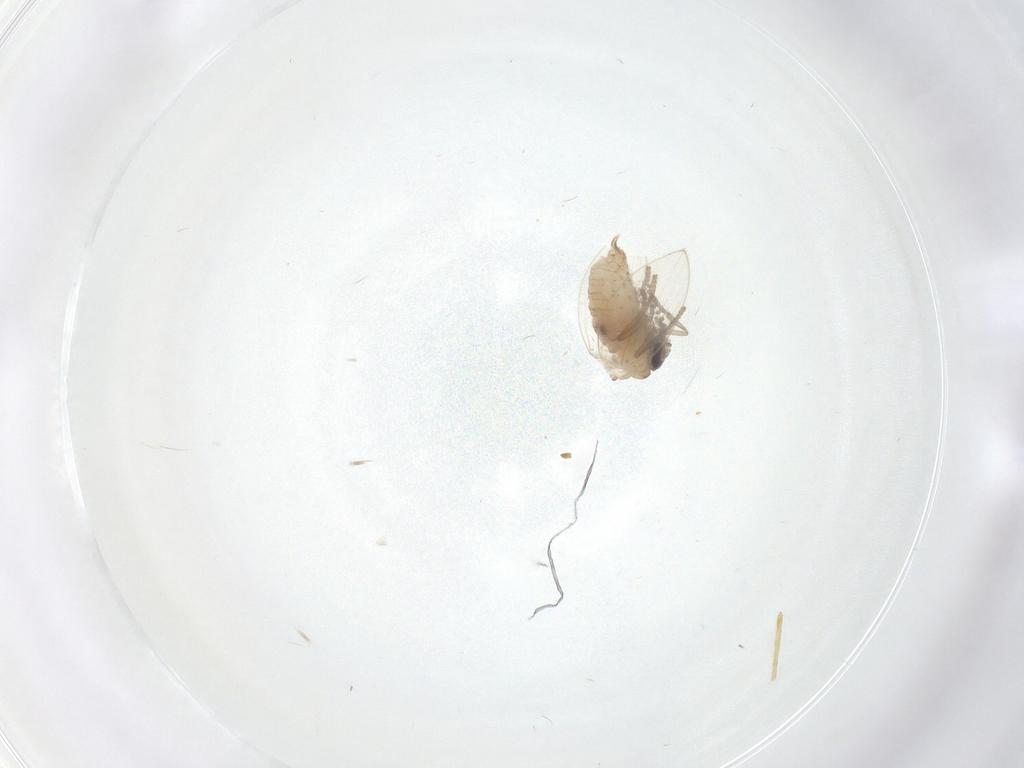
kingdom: Animalia
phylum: Arthropoda
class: Insecta
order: Diptera
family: Psychodidae
